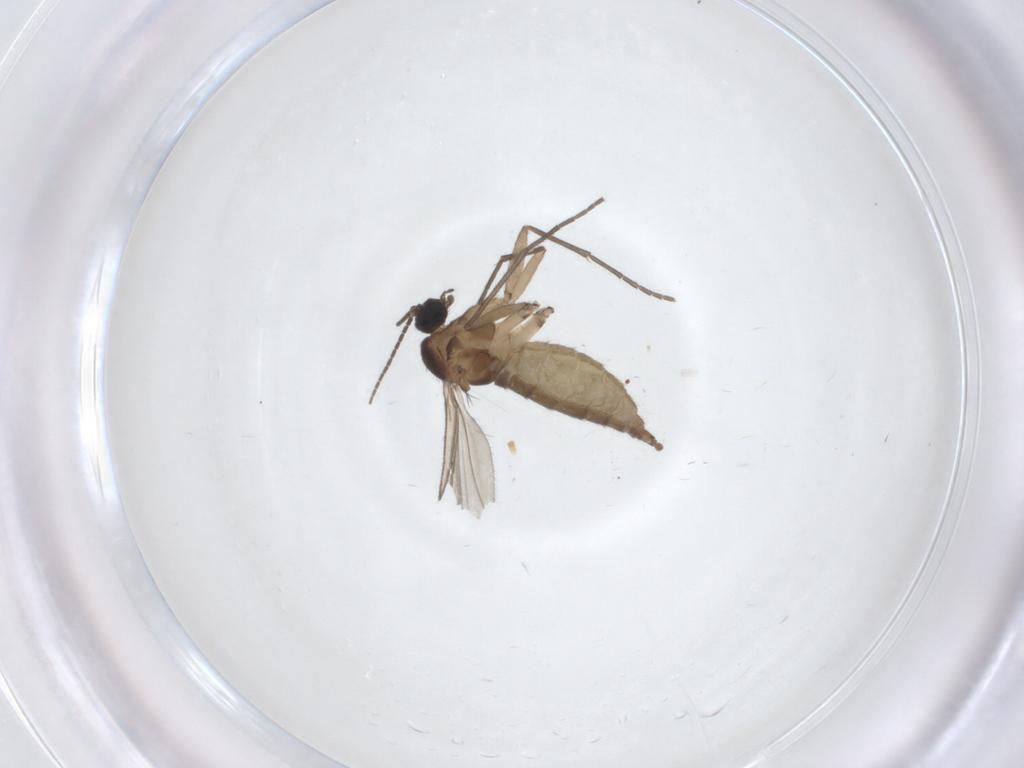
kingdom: Animalia
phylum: Arthropoda
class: Insecta
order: Diptera
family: Sciaridae
